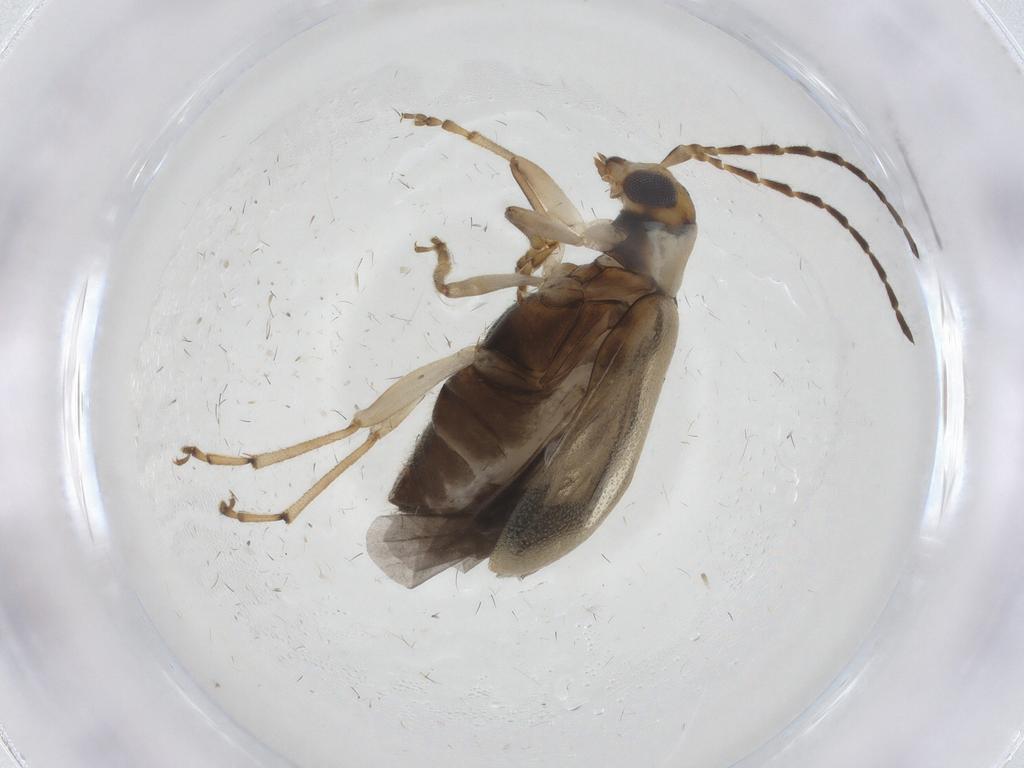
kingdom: Animalia
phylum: Arthropoda
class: Insecta
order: Coleoptera
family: Chrysomelidae
